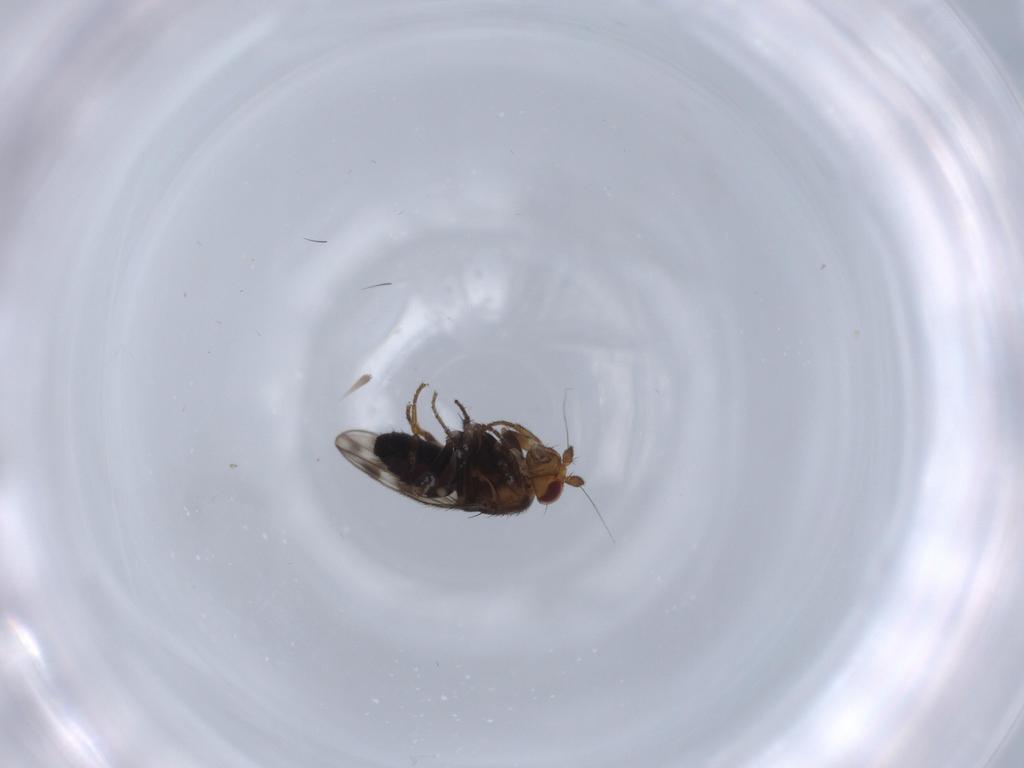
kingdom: Animalia
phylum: Arthropoda
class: Insecta
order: Diptera
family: Sphaeroceridae
